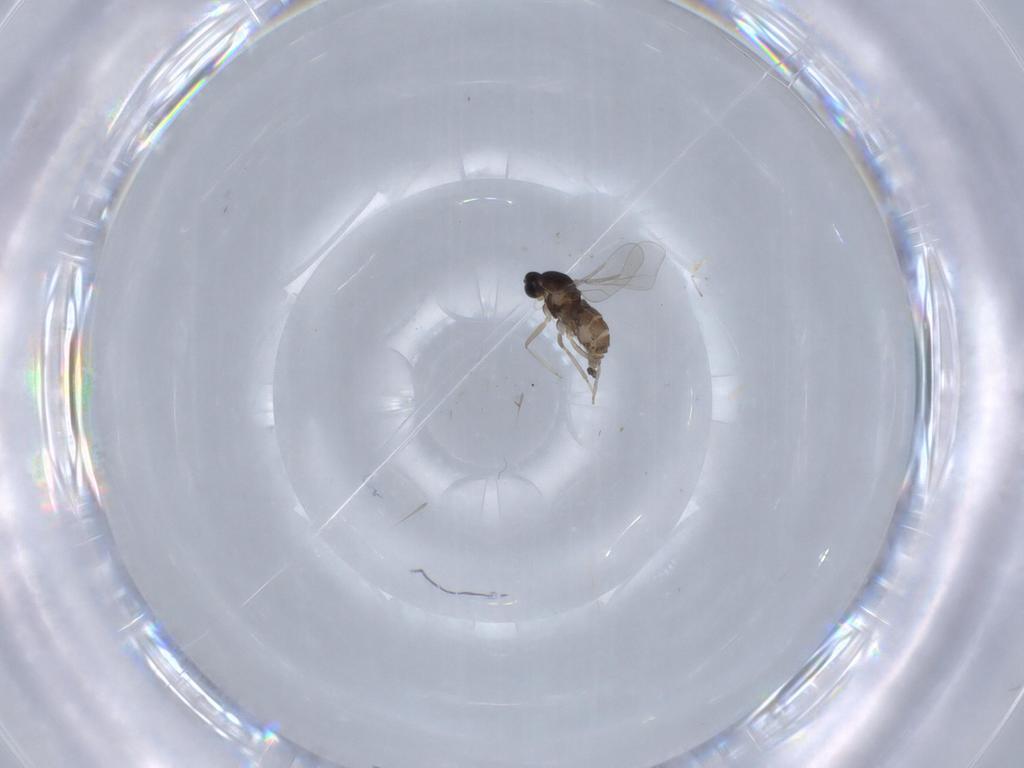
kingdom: Animalia
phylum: Arthropoda
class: Insecta
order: Diptera
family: Cecidomyiidae
